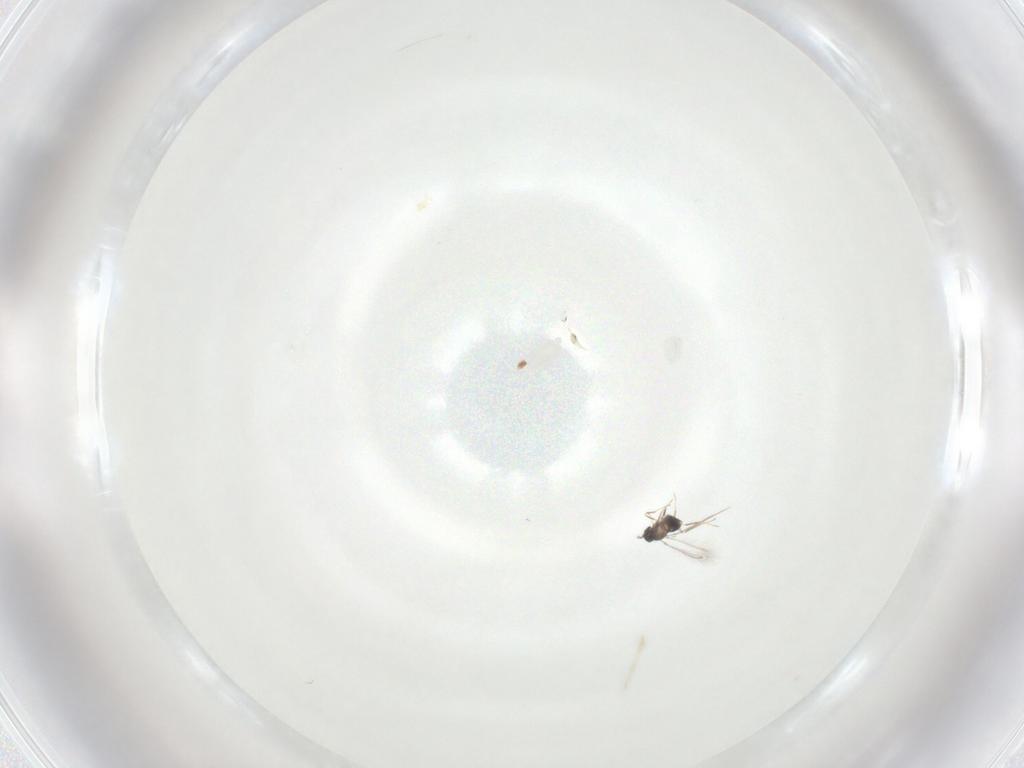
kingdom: Animalia
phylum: Arthropoda
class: Insecta
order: Hymenoptera
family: Mymaridae
